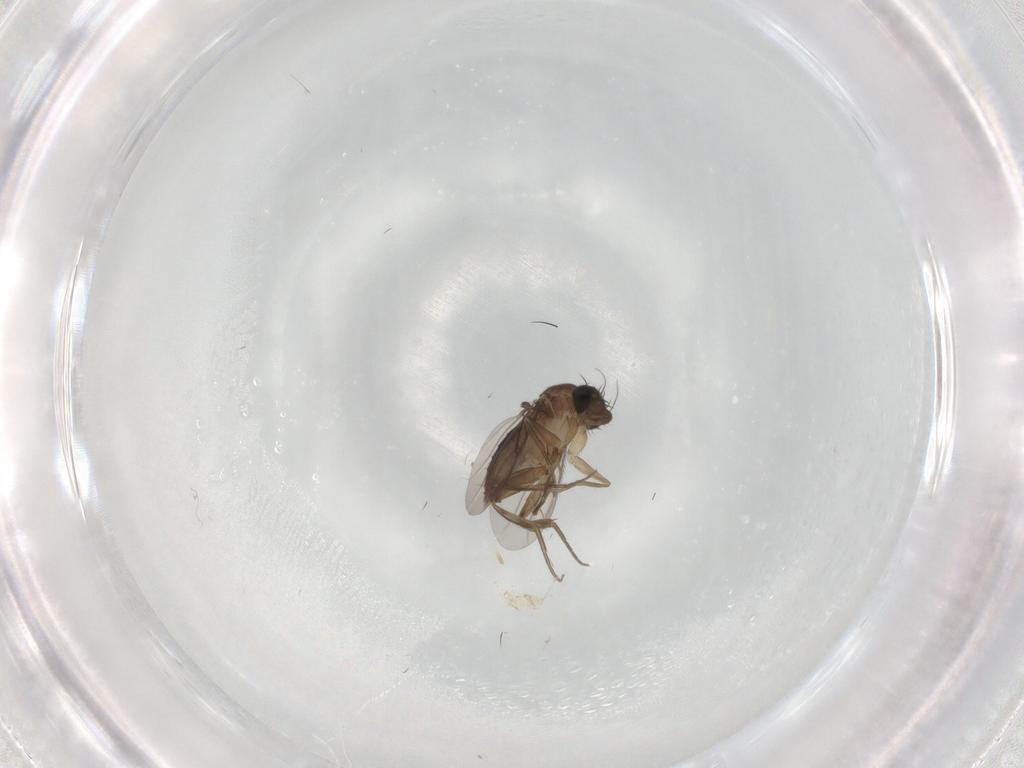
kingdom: Animalia
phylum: Arthropoda
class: Insecta
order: Diptera
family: Phoridae
